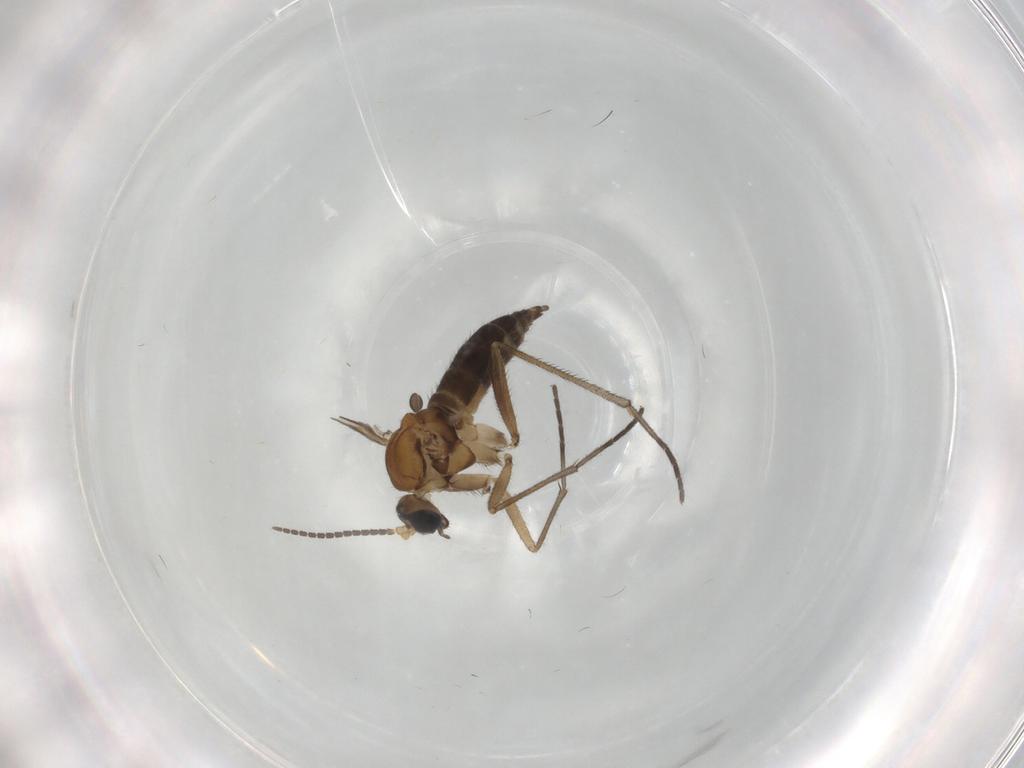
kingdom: Animalia
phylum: Arthropoda
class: Insecta
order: Diptera
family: Sciaridae
